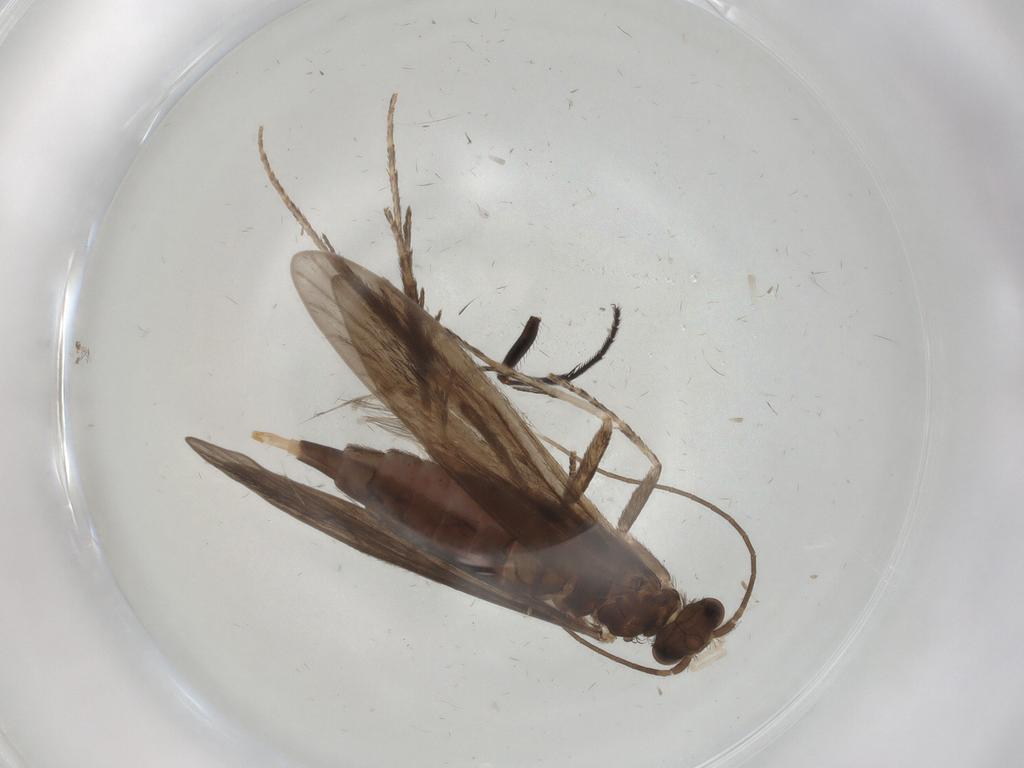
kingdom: Animalia
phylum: Arthropoda
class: Insecta
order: Trichoptera
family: Xiphocentronidae
